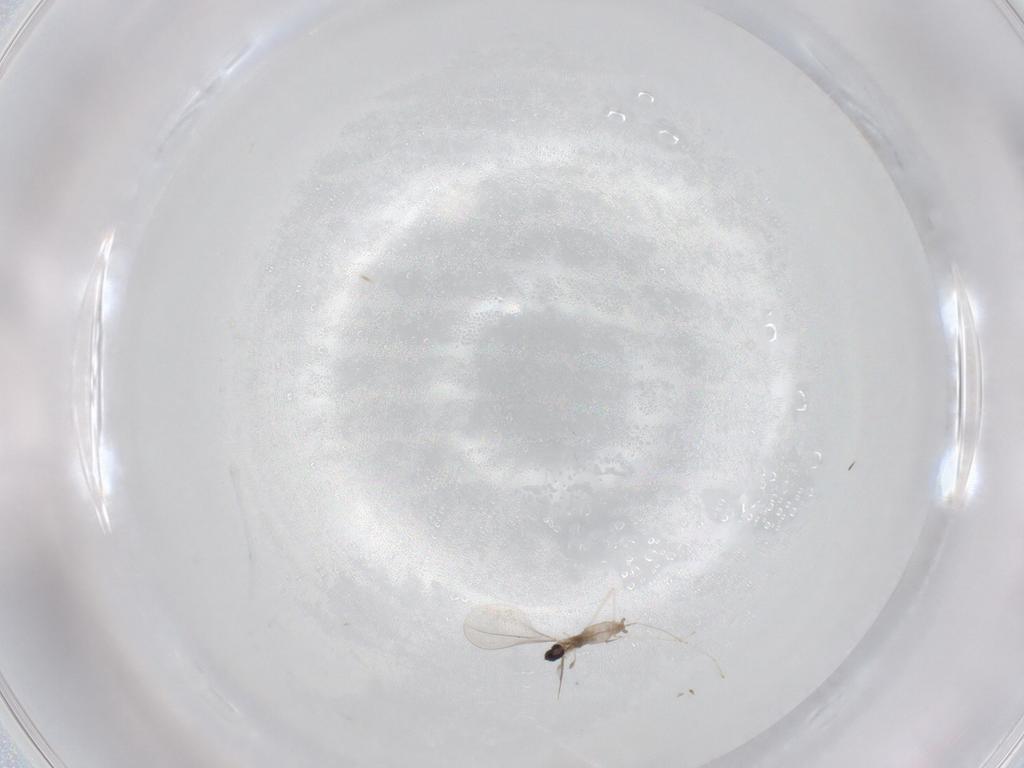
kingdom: Animalia
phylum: Arthropoda
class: Insecta
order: Diptera
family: Cecidomyiidae
